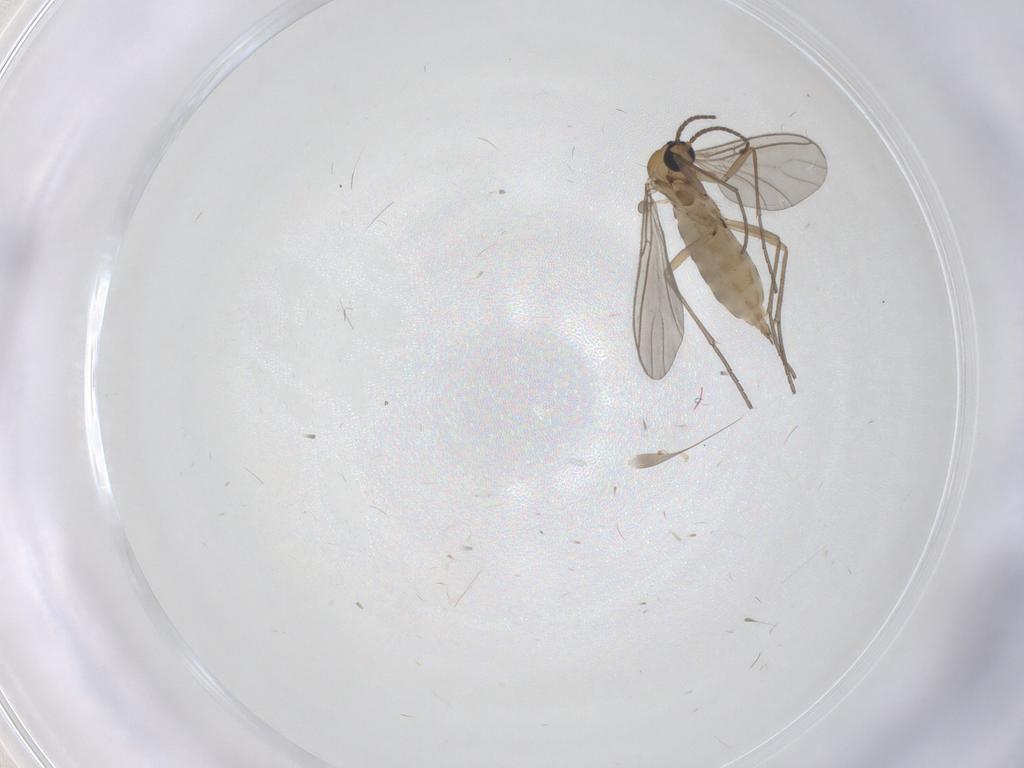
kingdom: Animalia
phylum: Arthropoda
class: Insecta
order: Diptera
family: Sciaridae
